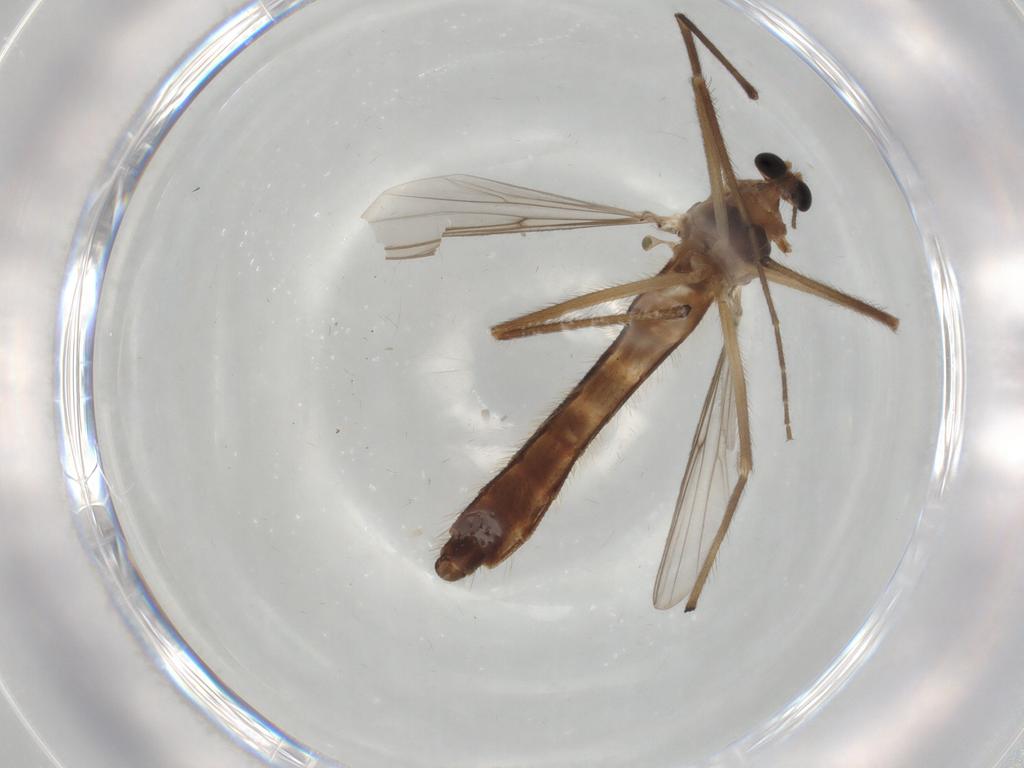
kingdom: Animalia
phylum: Arthropoda
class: Insecta
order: Diptera
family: Chironomidae
